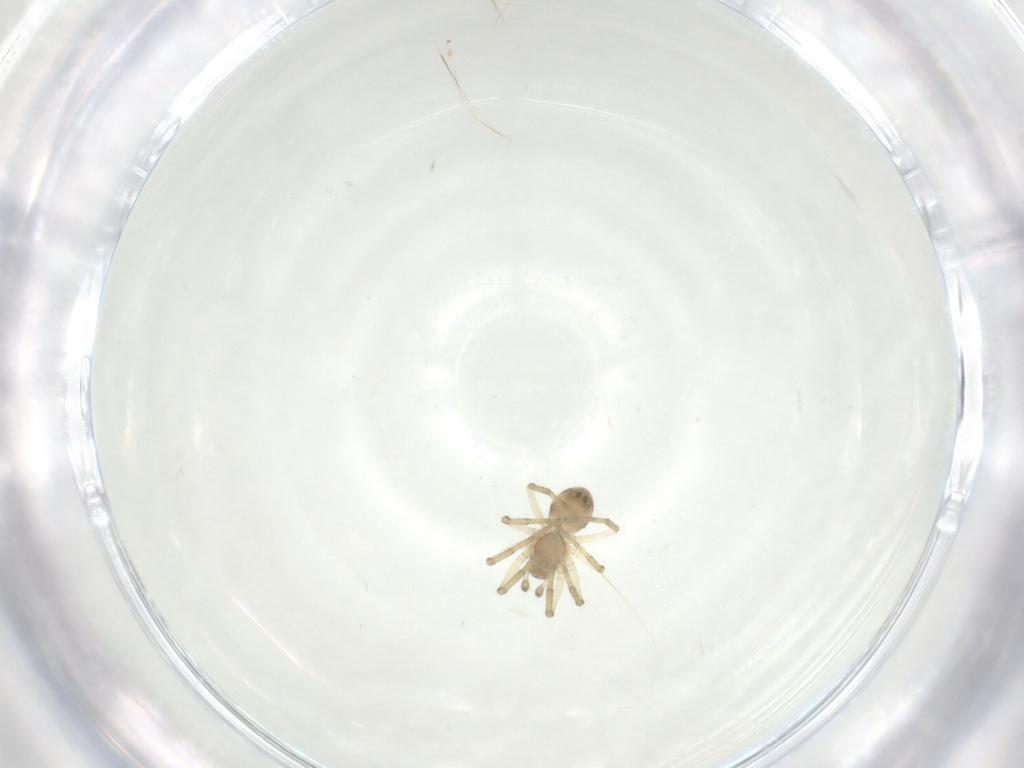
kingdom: Animalia
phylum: Arthropoda
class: Arachnida
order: Araneae
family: Linyphiidae
